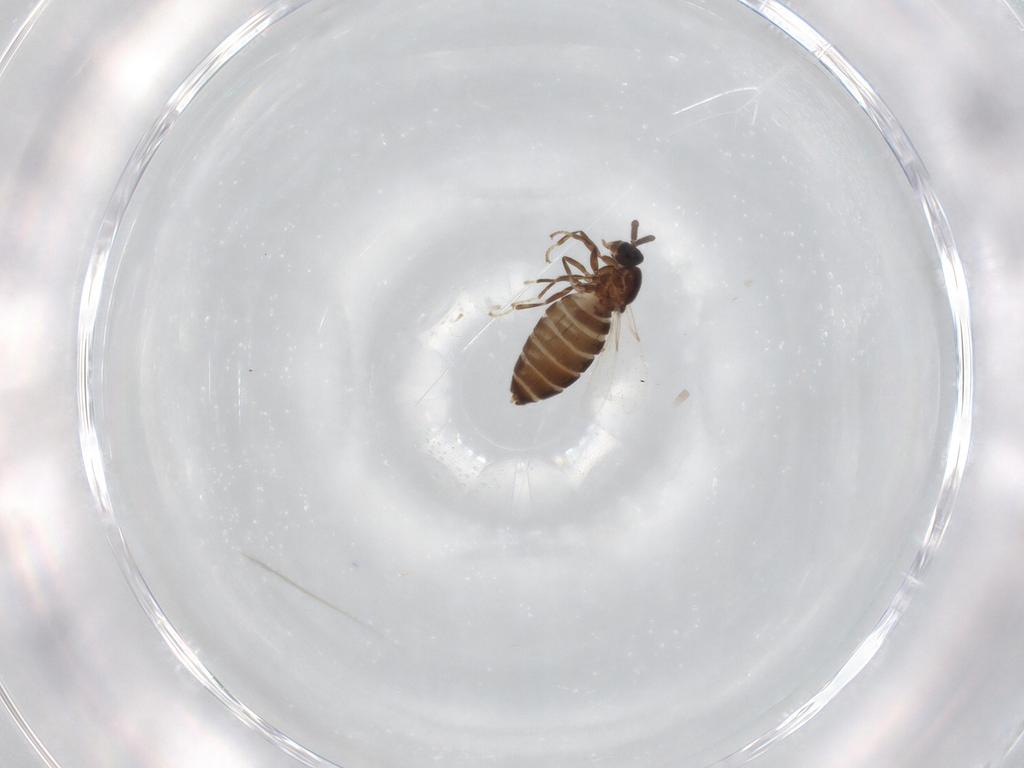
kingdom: Animalia
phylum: Arthropoda
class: Insecta
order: Diptera
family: Scatopsidae
